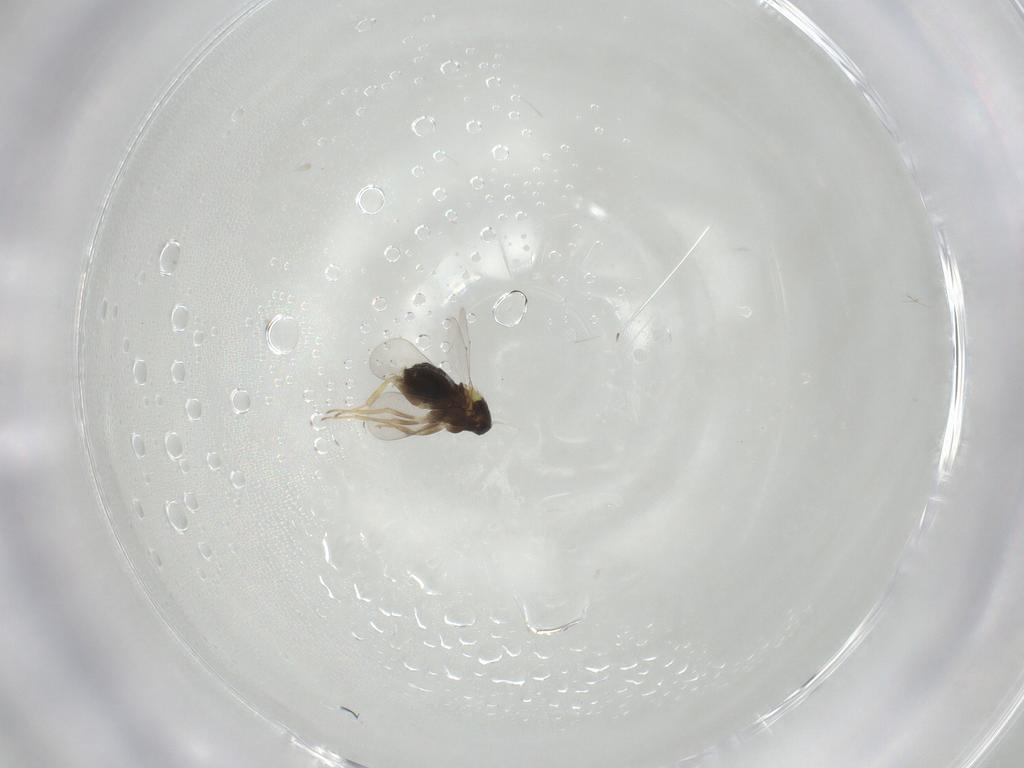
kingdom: Animalia
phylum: Arthropoda
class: Insecta
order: Hymenoptera
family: Aphelinidae
